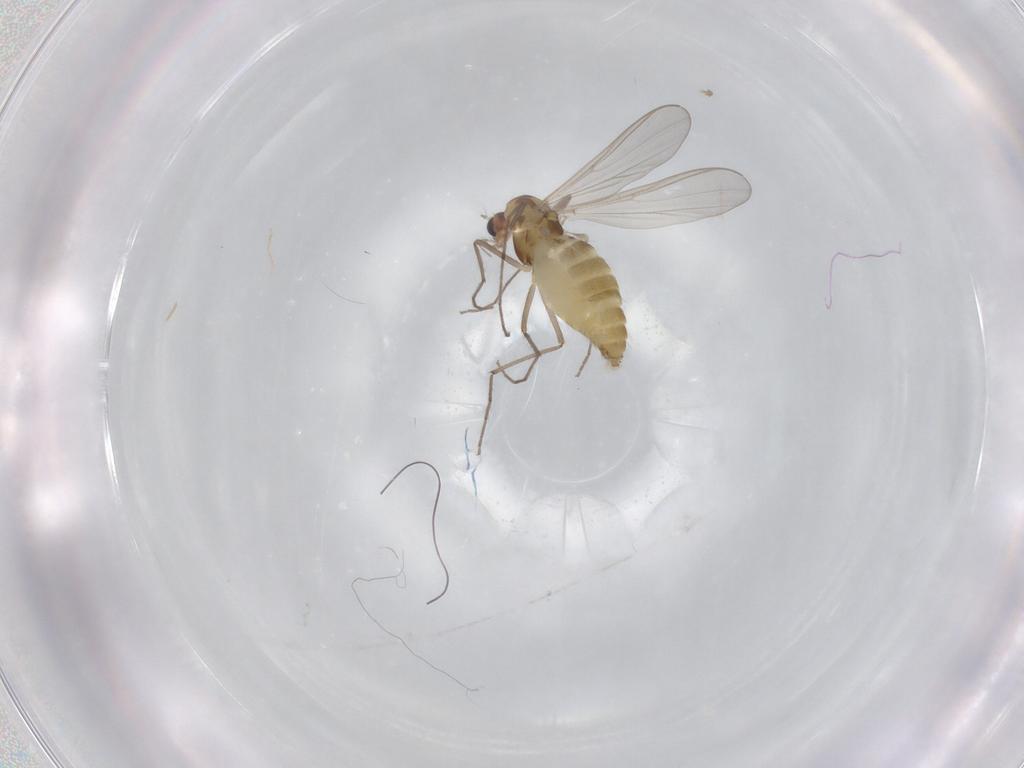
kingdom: Animalia
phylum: Arthropoda
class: Insecta
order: Diptera
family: Chironomidae
